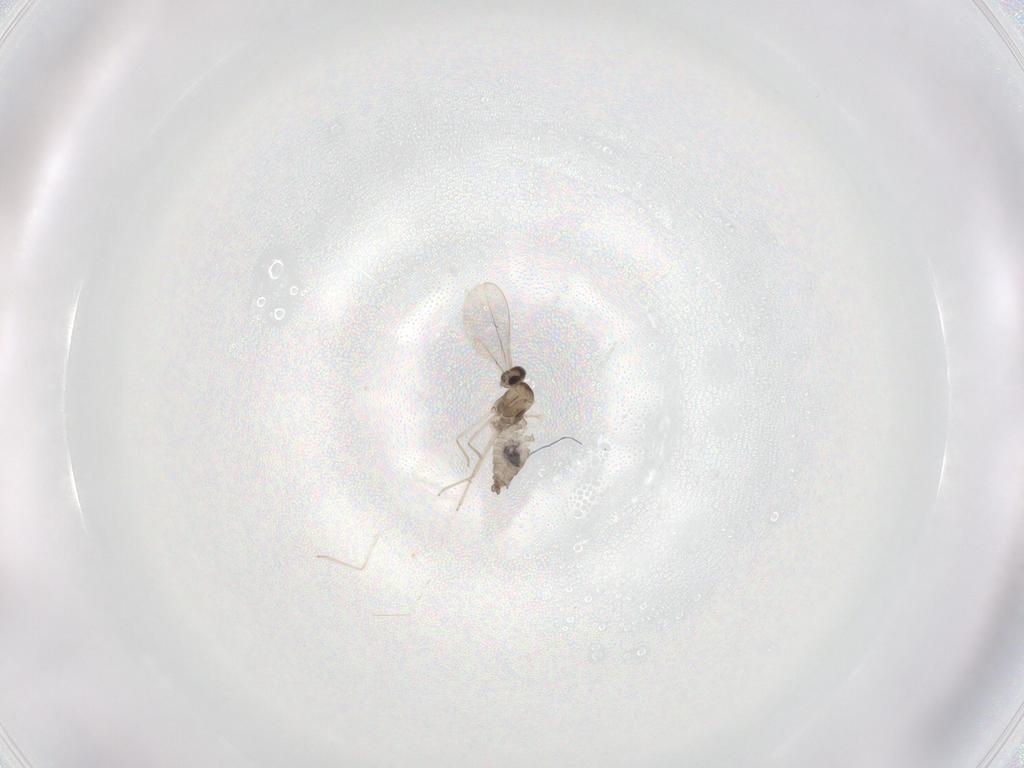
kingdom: Animalia
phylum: Arthropoda
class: Insecta
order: Diptera
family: Cecidomyiidae
